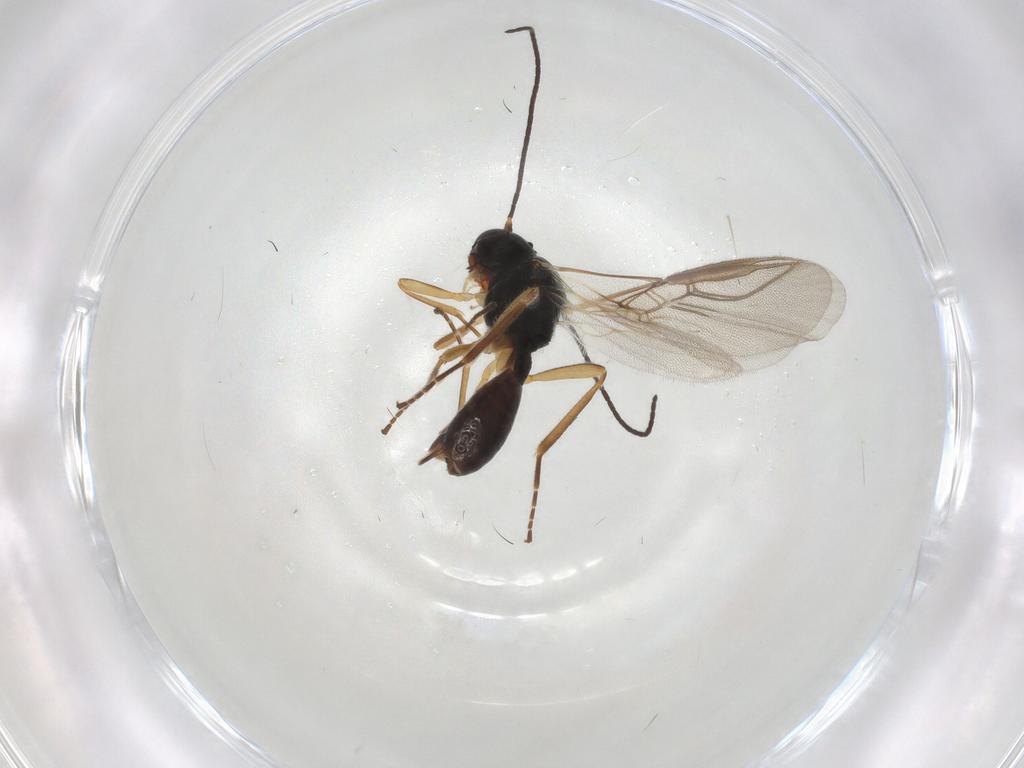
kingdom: Animalia
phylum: Arthropoda
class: Insecta
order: Hymenoptera
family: Braconidae
